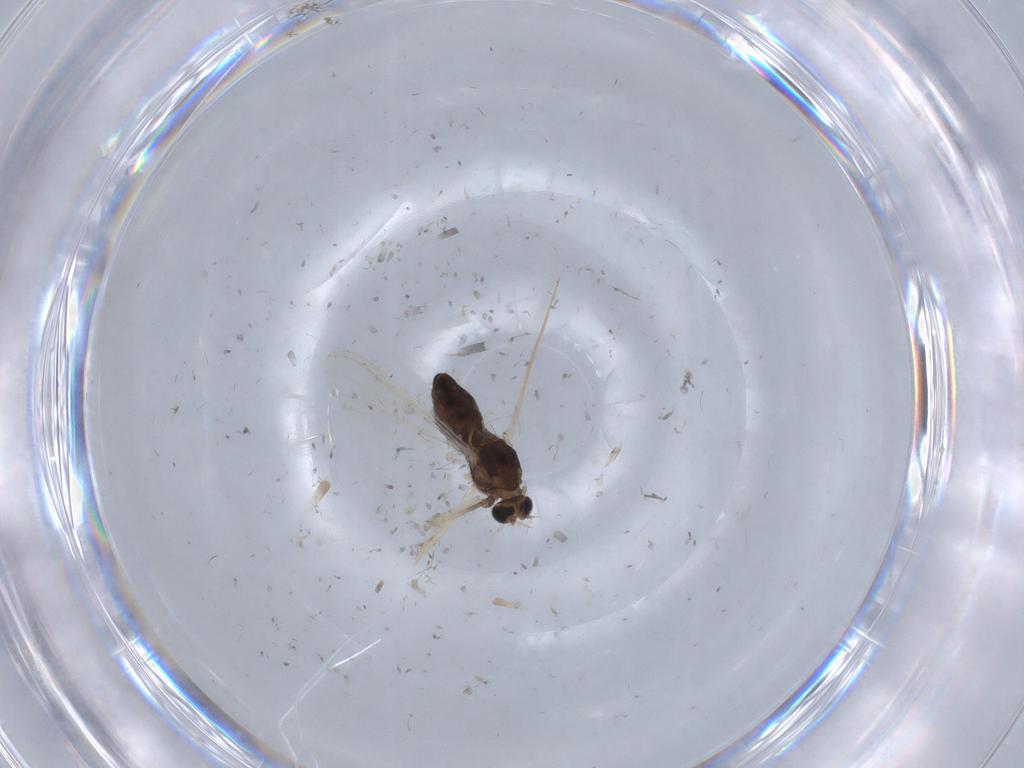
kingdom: Animalia
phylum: Arthropoda
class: Insecta
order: Diptera
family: Chironomidae
